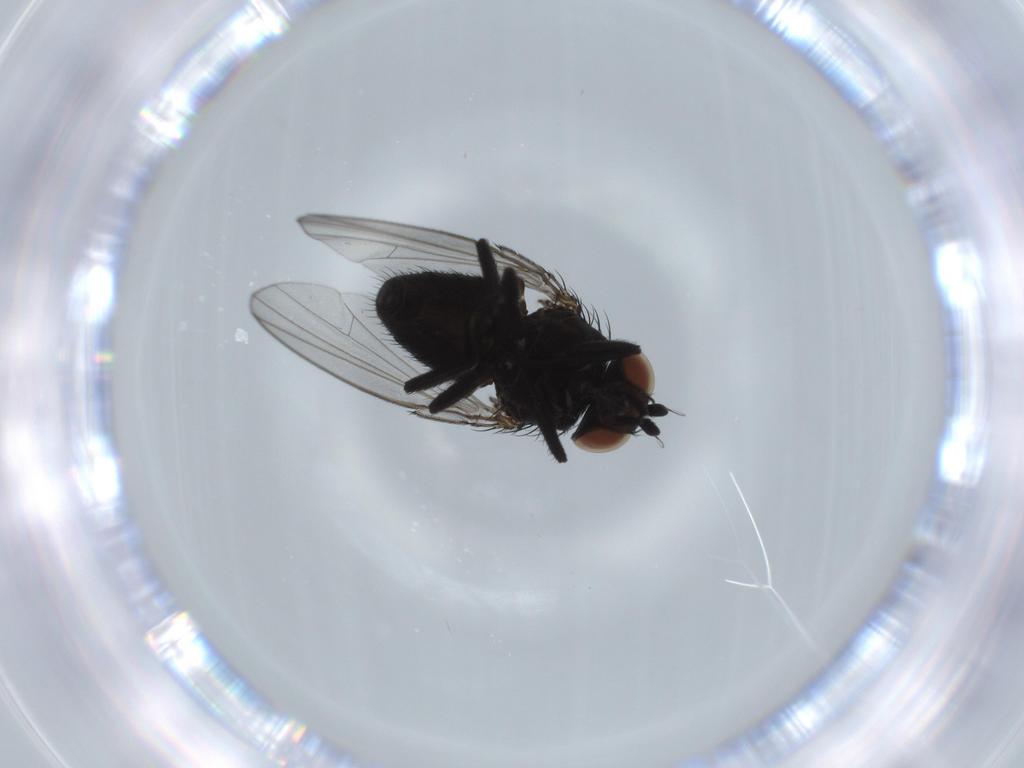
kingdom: Animalia
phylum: Arthropoda
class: Insecta
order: Diptera
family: Milichiidae
